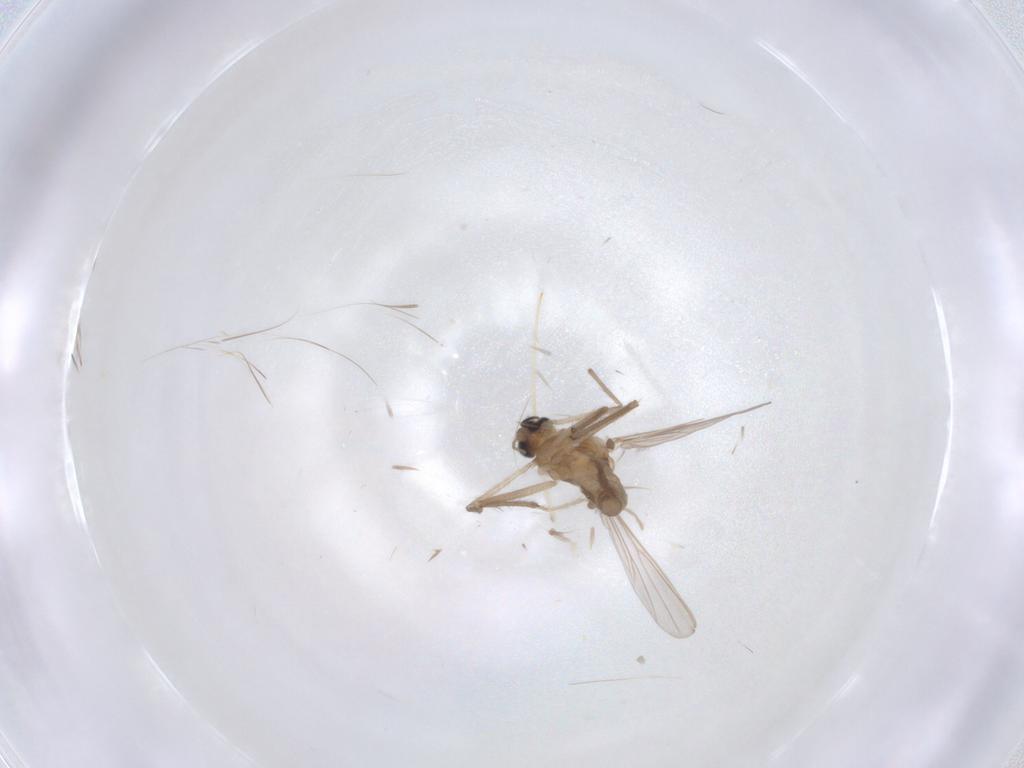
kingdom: Animalia
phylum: Arthropoda
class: Insecta
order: Diptera
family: Chironomidae
